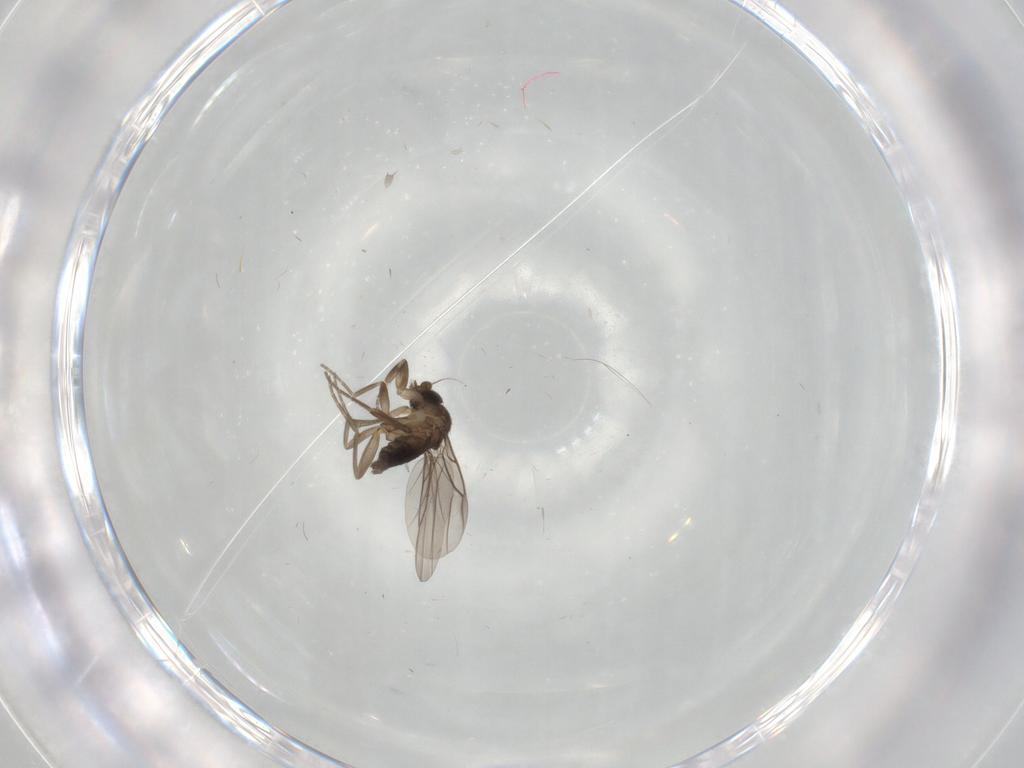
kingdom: Animalia
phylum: Arthropoda
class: Insecta
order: Diptera
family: Phoridae
